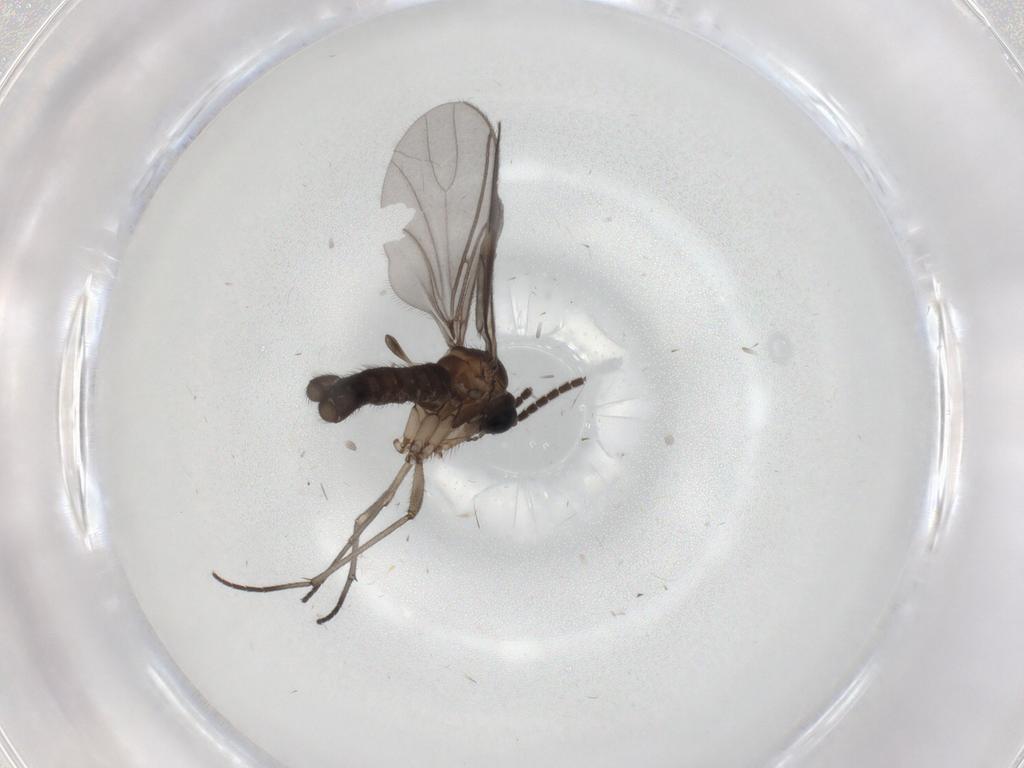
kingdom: Animalia
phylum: Arthropoda
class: Insecta
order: Diptera
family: Sciaridae
